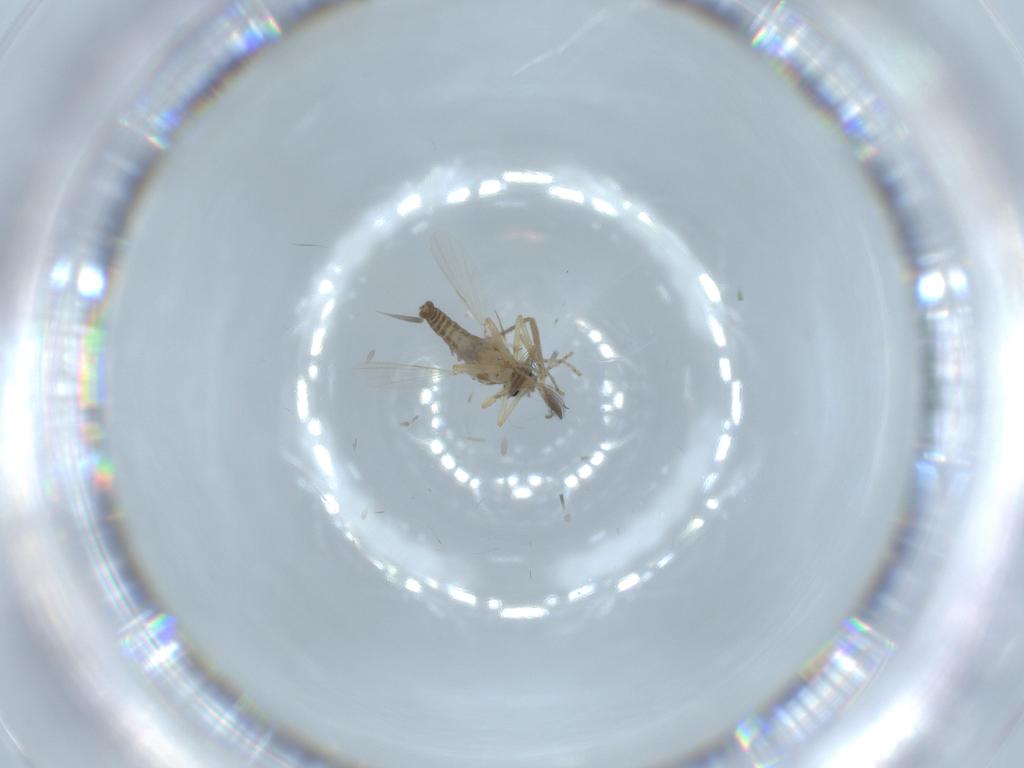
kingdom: Animalia
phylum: Arthropoda
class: Insecta
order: Diptera
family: Ceratopogonidae
